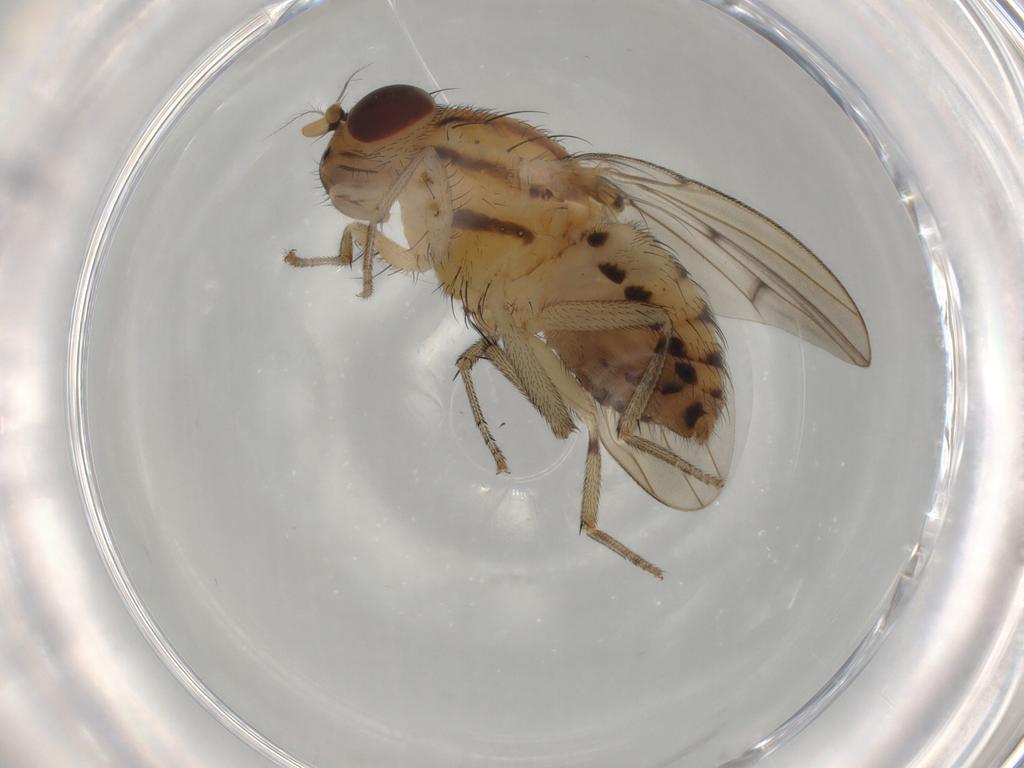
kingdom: Animalia
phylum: Arthropoda
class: Insecta
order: Diptera
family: Lauxaniidae
